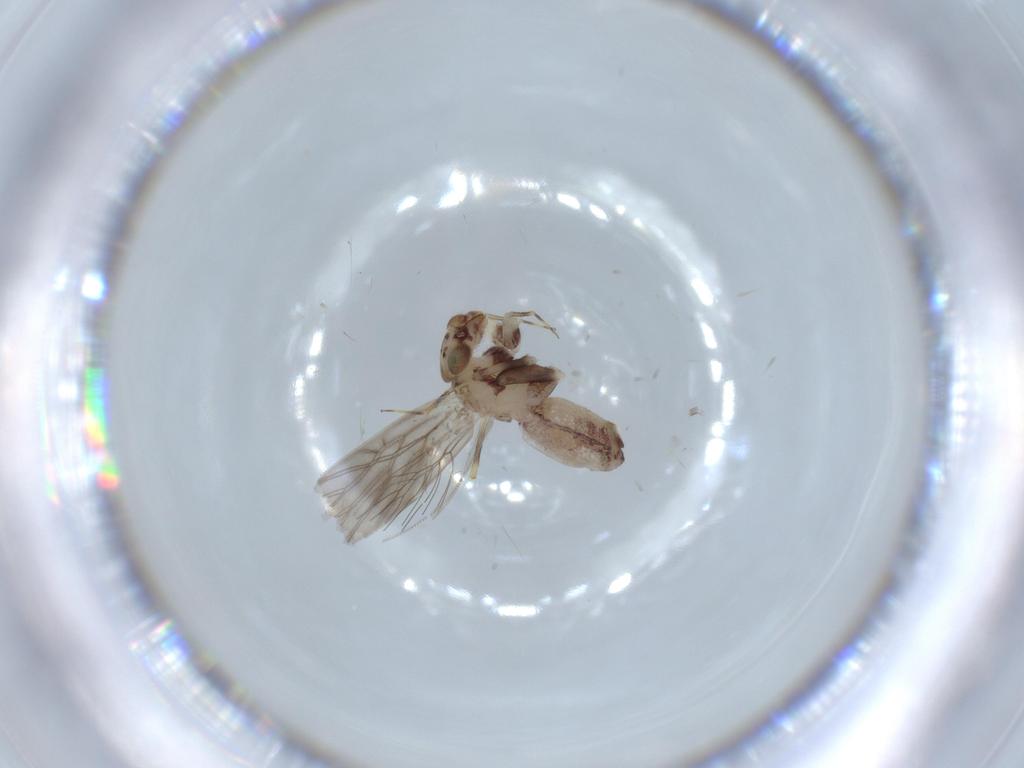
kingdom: Animalia
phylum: Arthropoda
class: Insecta
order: Psocodea
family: Lepidopsocidae
